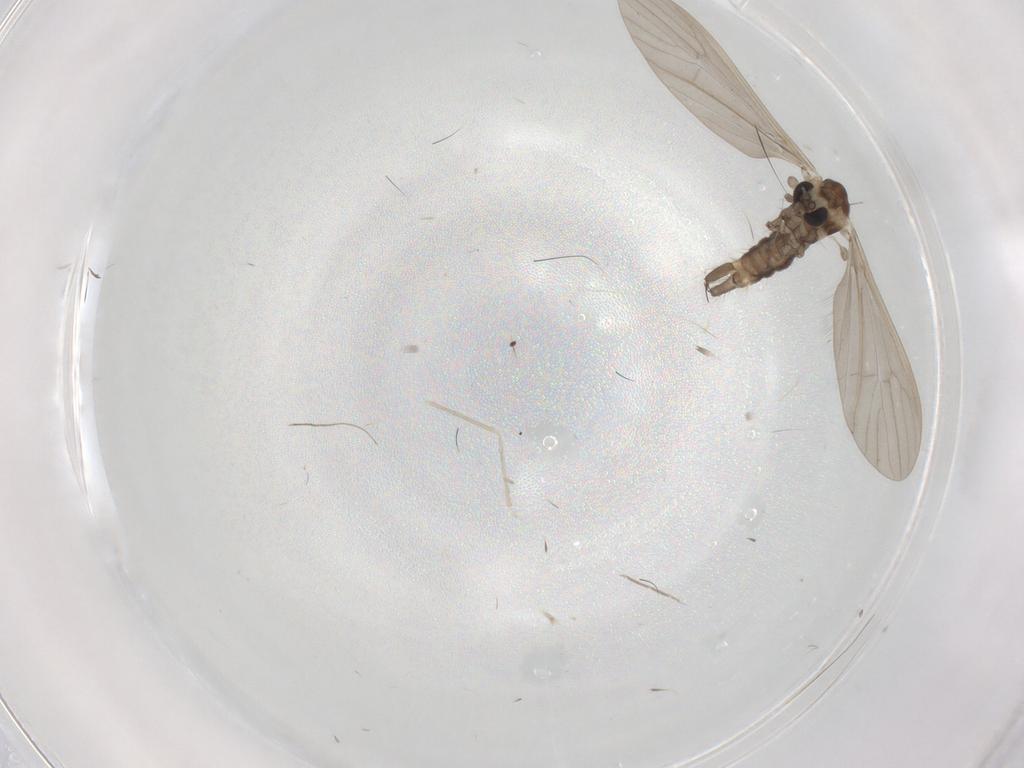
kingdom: Animalia
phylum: Arthropoda
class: Insecta
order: Diptera
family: Limoniidae
